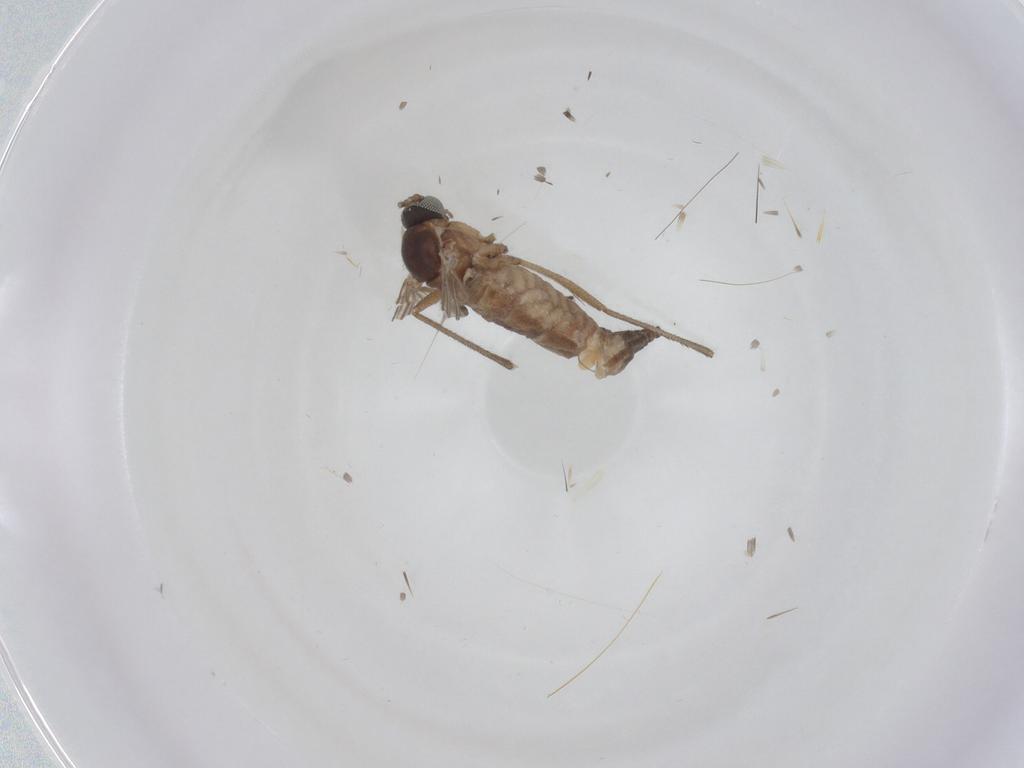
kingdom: Animalia
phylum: Arthropoda
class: Insecta
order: Diptera
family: Sciaridae
